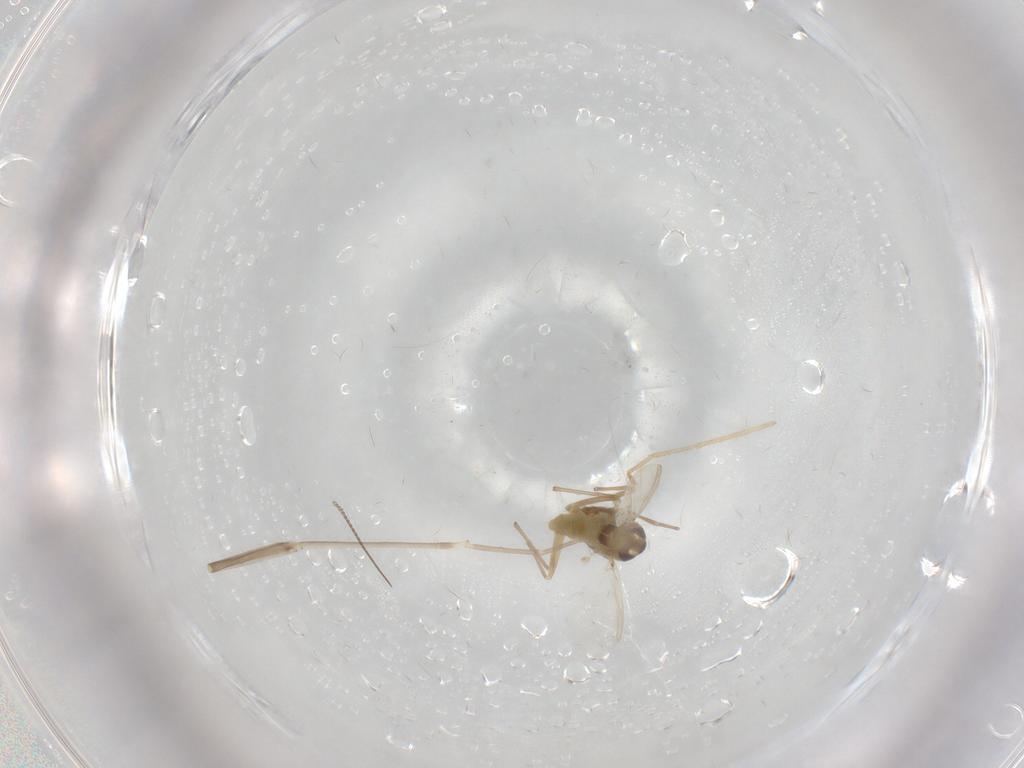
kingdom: Animalia
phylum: Arthropoda
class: Insecta
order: Diptera
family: Chironomidae
